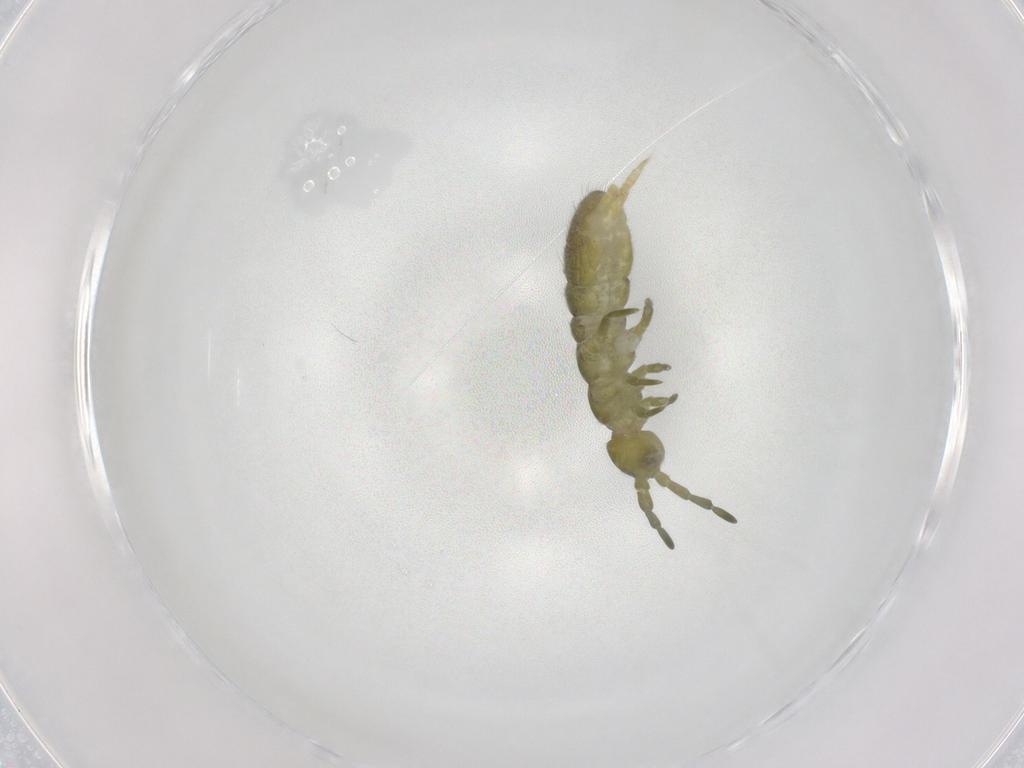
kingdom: Animalia
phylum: Arthropoda
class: Collembola
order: Entomobryomorpha
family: Isotomidae
